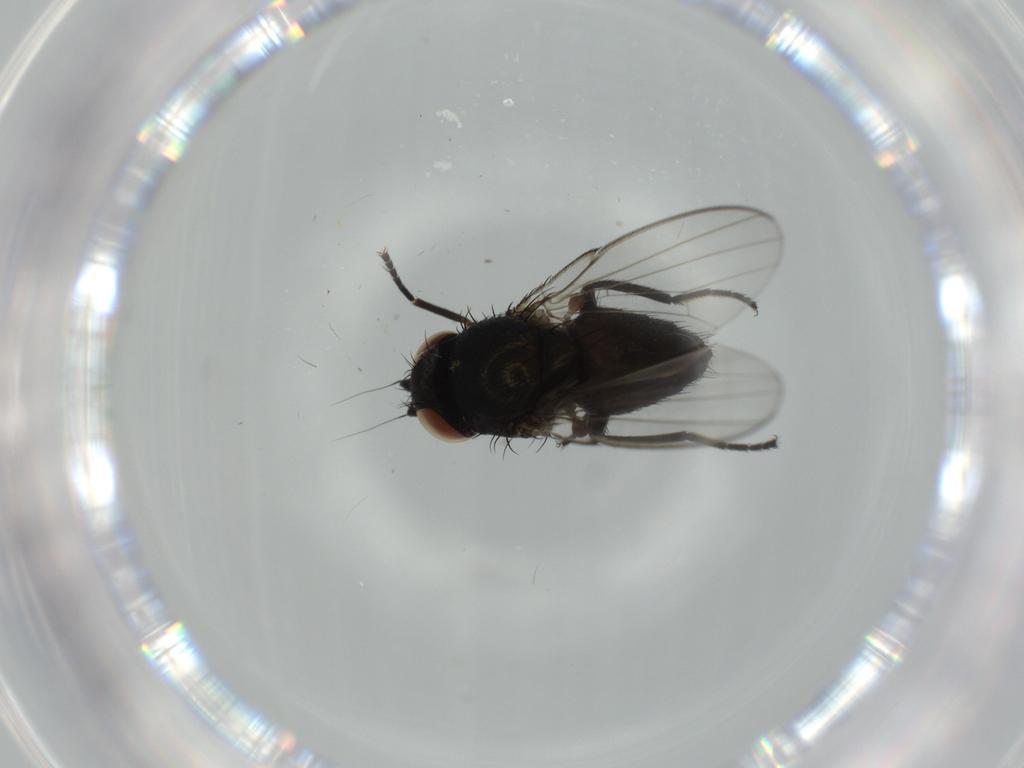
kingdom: Animalia
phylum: Arthropoda
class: Insecta
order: Diptera
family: Milichiidae
